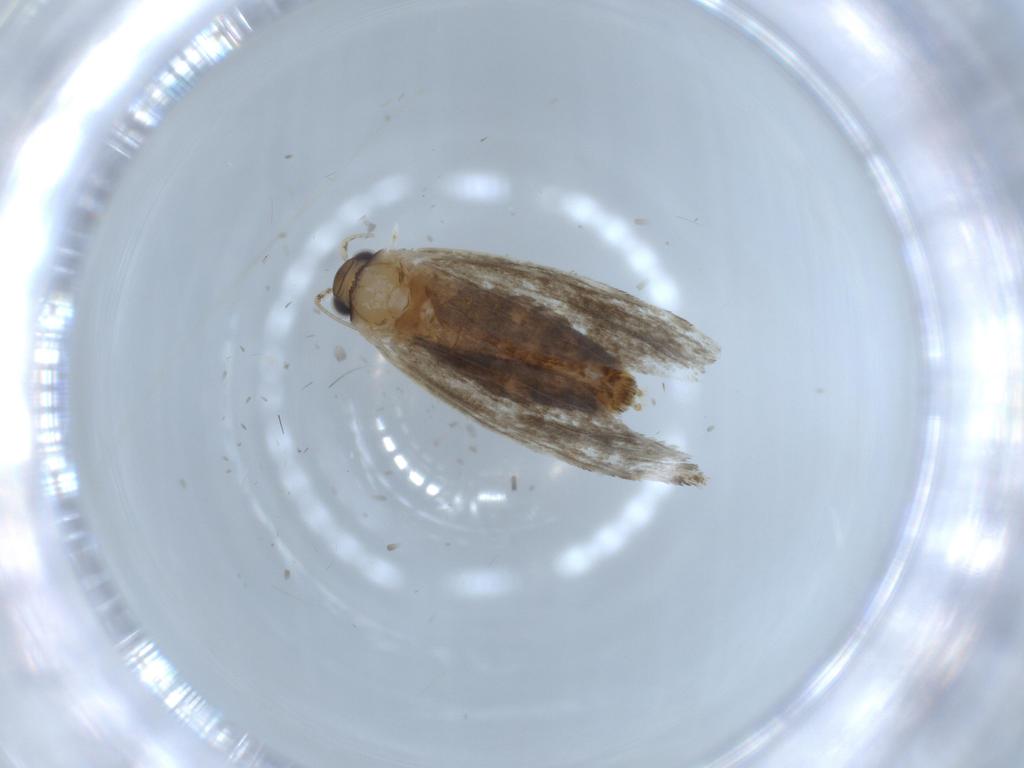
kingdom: Animalia
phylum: Arthropoda
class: Insecta
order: Lepidoptera
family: Tineidae
